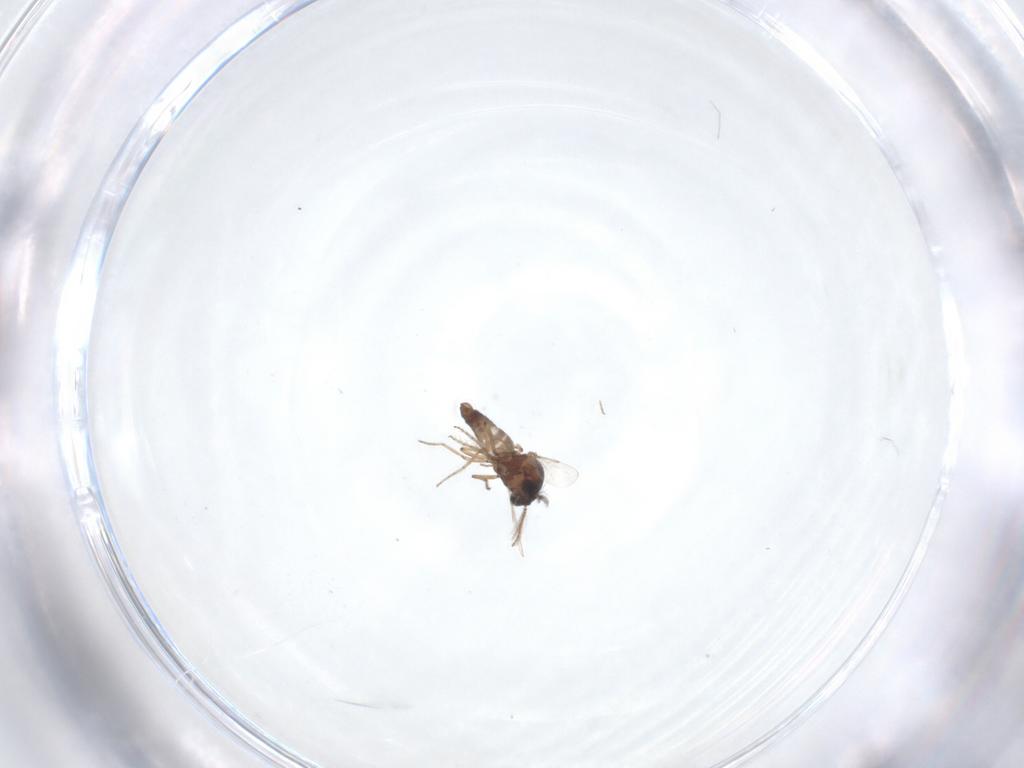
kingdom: Animalia
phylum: Arthropoda
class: Insecta
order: Diptera
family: Ceratopogonidae
